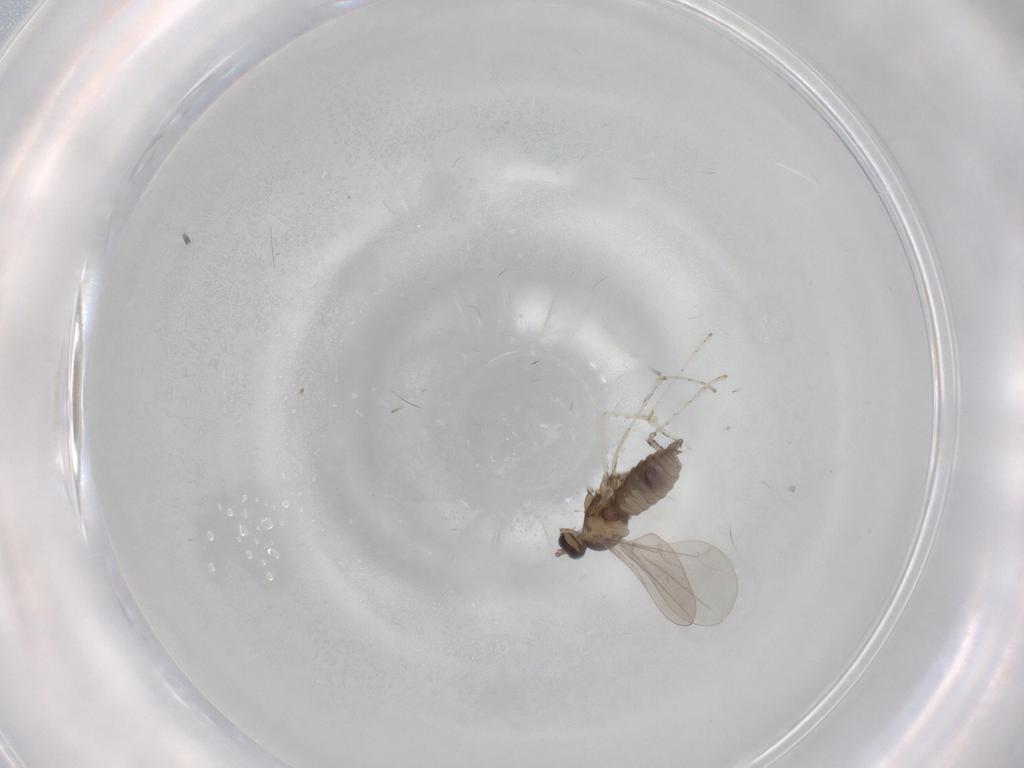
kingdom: Animalia
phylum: Arthropoda
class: Insecta
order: Diptera
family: Cecidomyiidae
